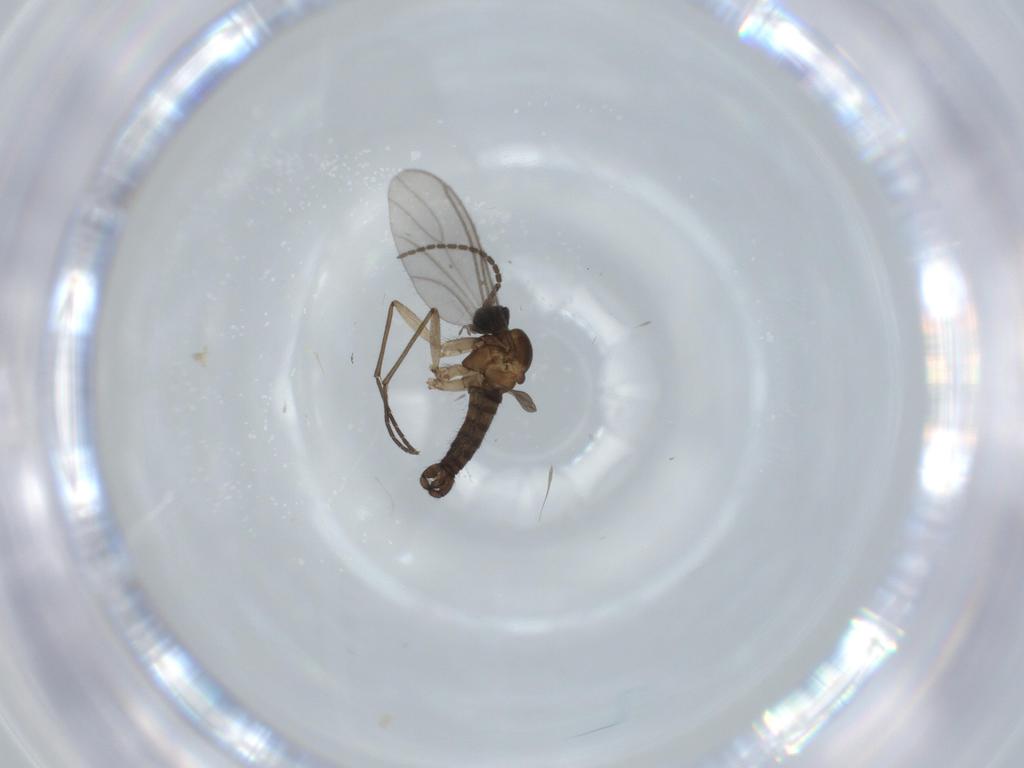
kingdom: Animalia
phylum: Arthropoda
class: Insecta
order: Diptera
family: Sciaridae
